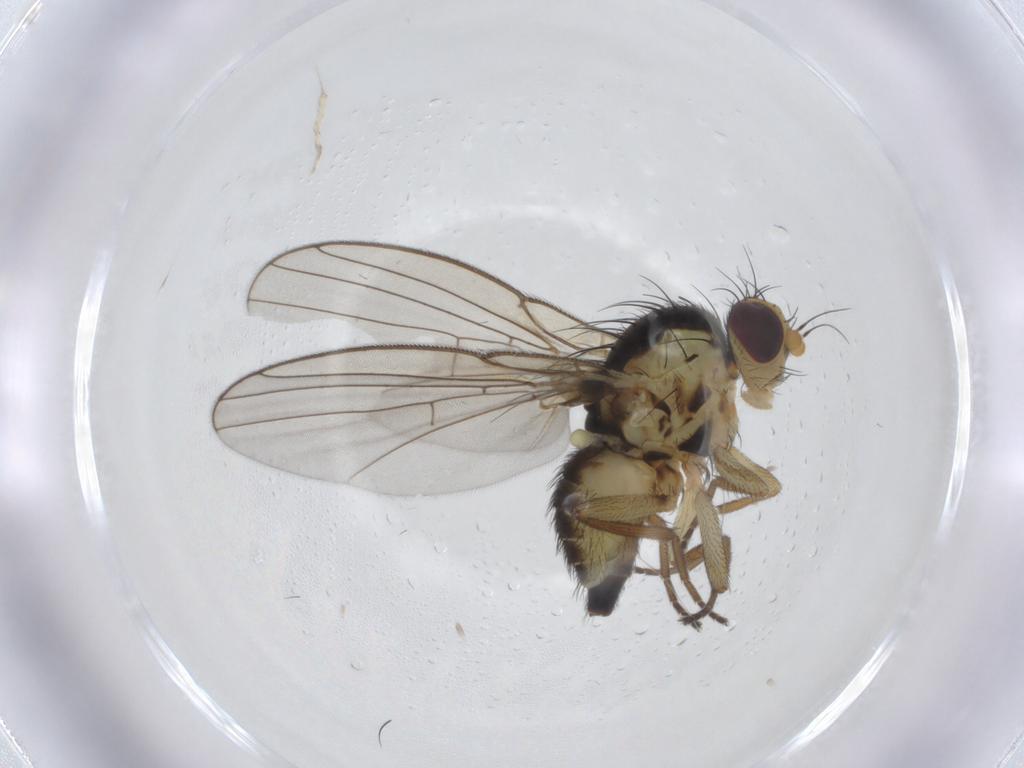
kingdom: Animalia
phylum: Arthropoda
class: Insecta
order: Diptera
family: Agromyzidae
